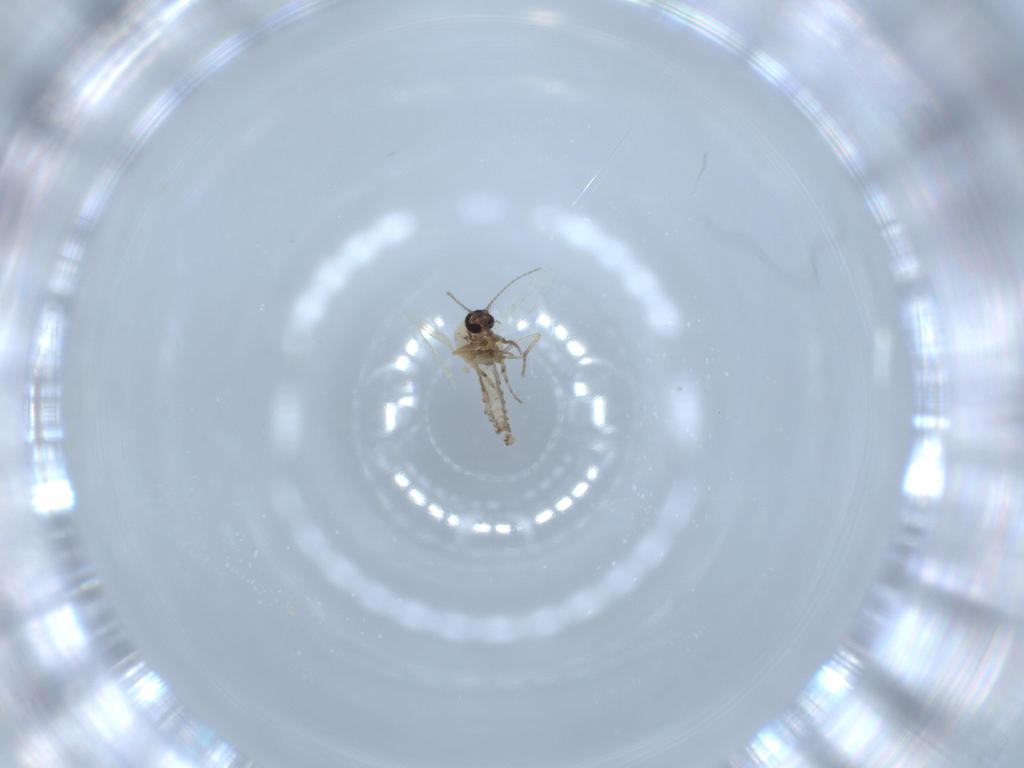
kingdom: Animalia
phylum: Arthropoda
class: Insecta
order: Diptera
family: Ceratopogonidae
